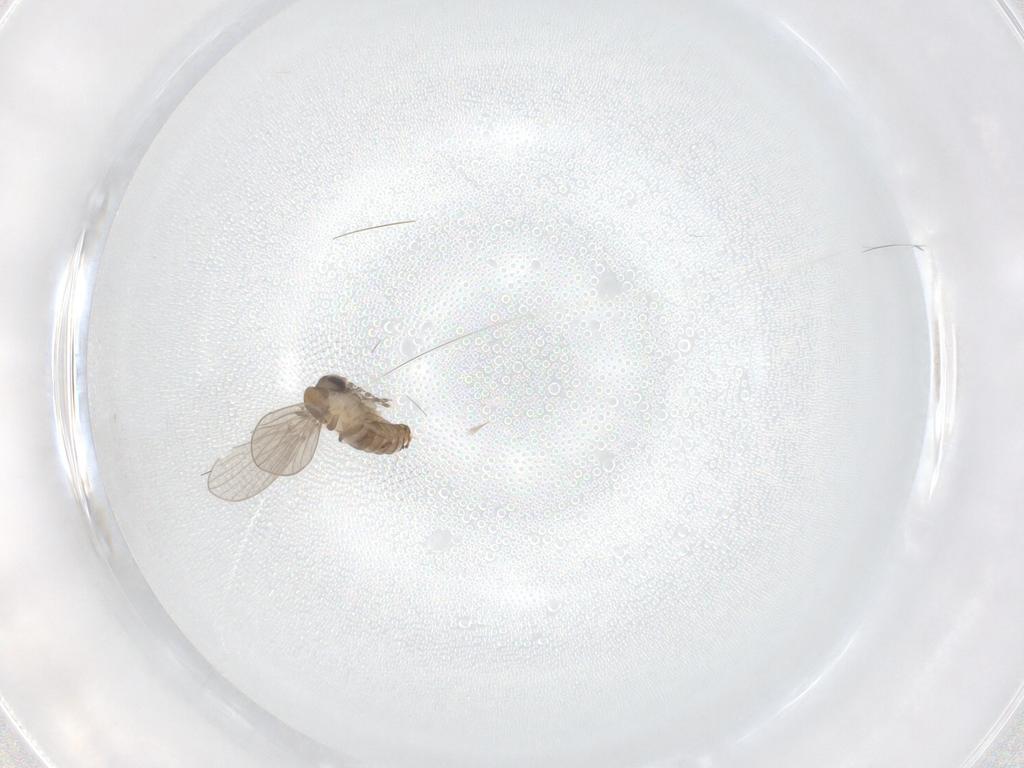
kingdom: Animalia
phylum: Arthropoda
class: Insecta
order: Diptera
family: Psychodidae
